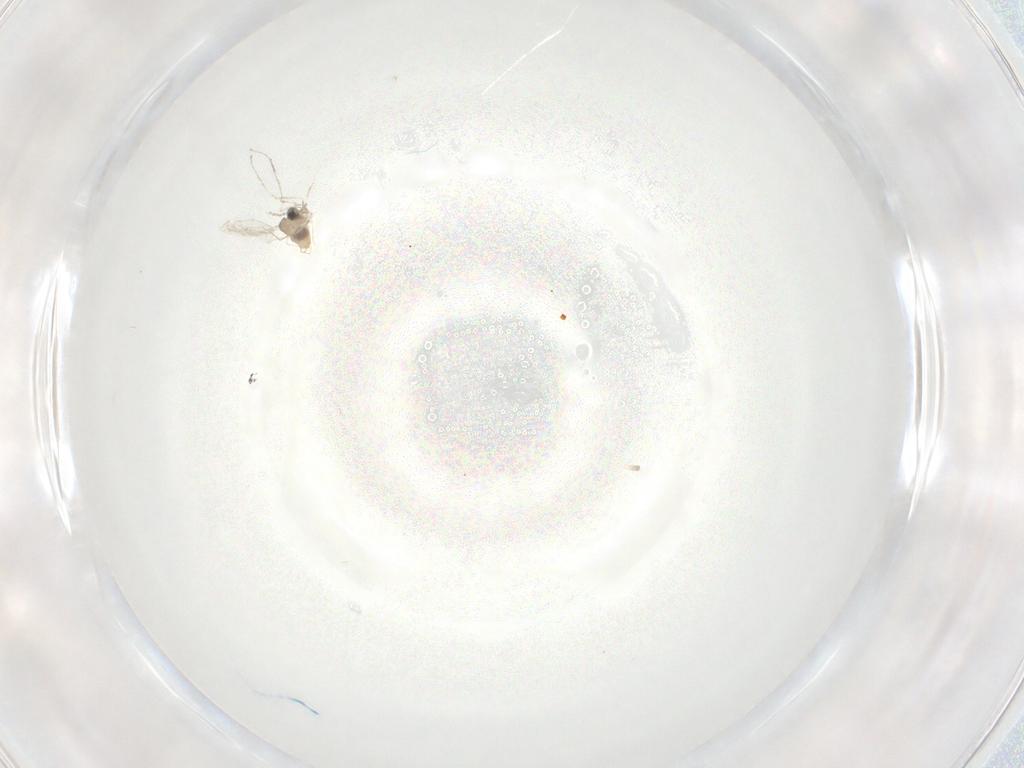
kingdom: Animalia
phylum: Arthropoda
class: Insecta
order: Diptera
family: Cecidomyiidae
